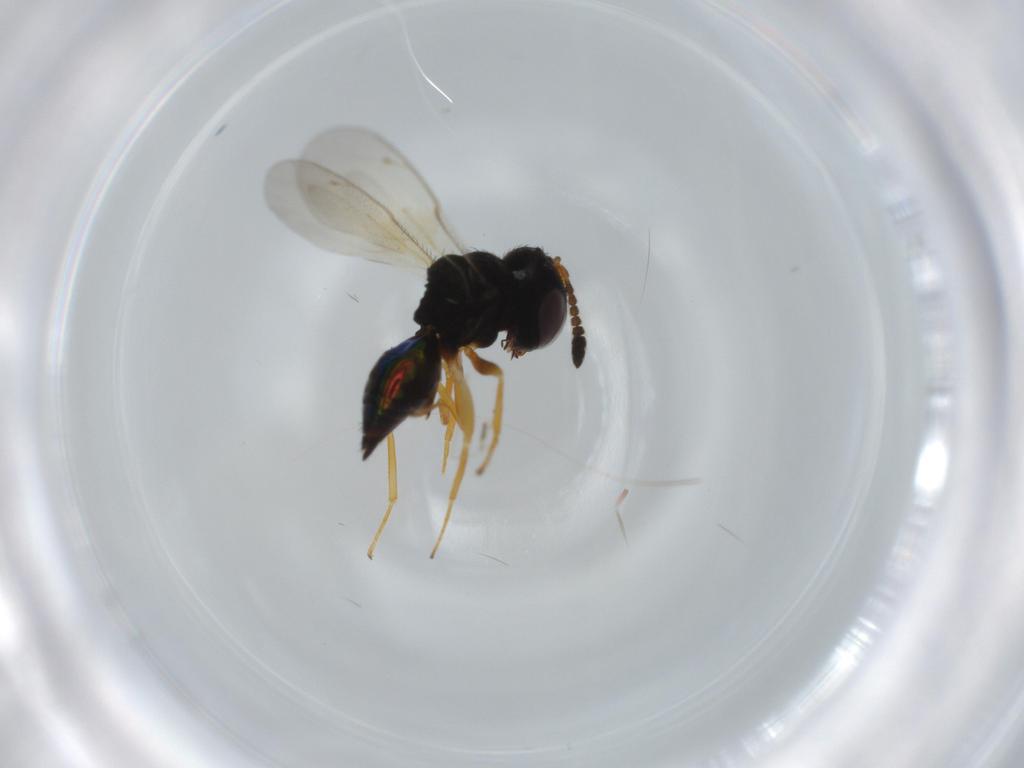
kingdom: Animalia
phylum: Arthropoda
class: Insecta
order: Hymenoptera
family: Pteromalidae
